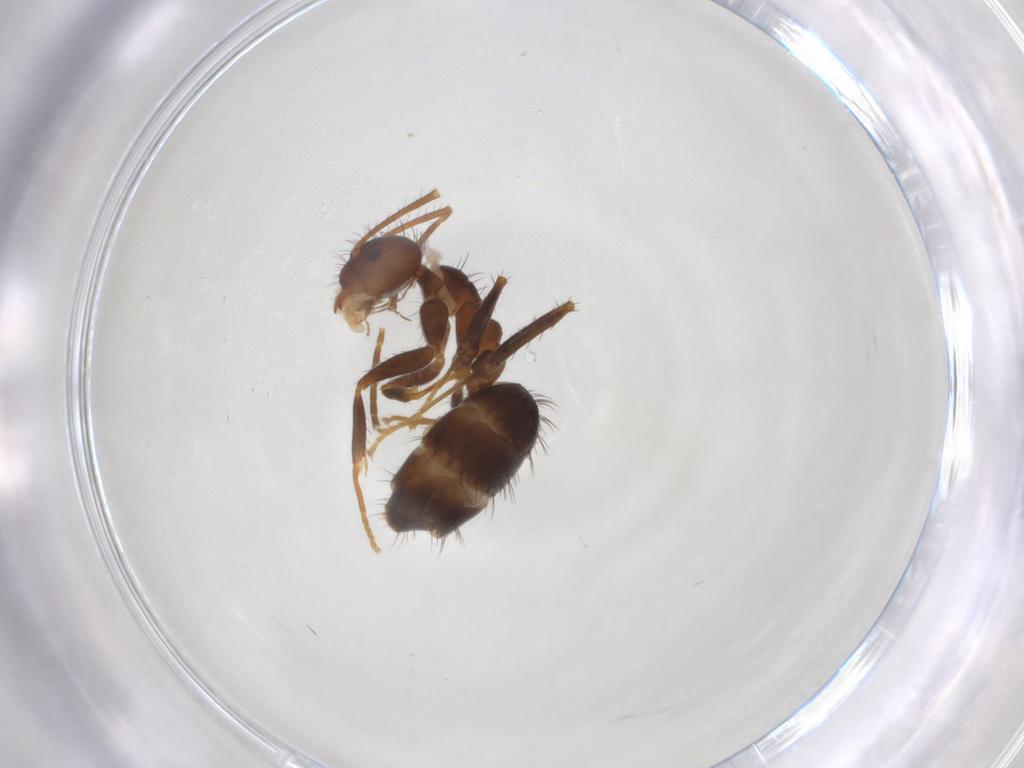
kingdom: Animalia
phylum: Arthropoda
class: Insecta
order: Hymenoptera
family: Formicidae
